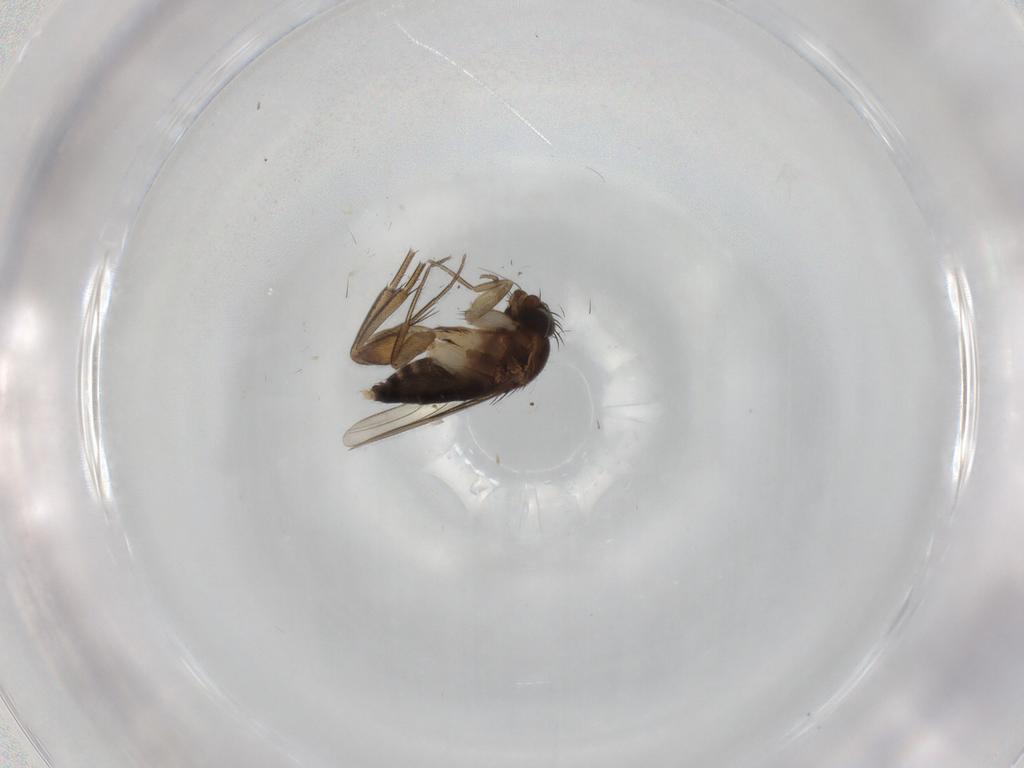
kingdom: Animalia
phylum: Arthropoda
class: Insecta
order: Diptera
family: Phoridae
